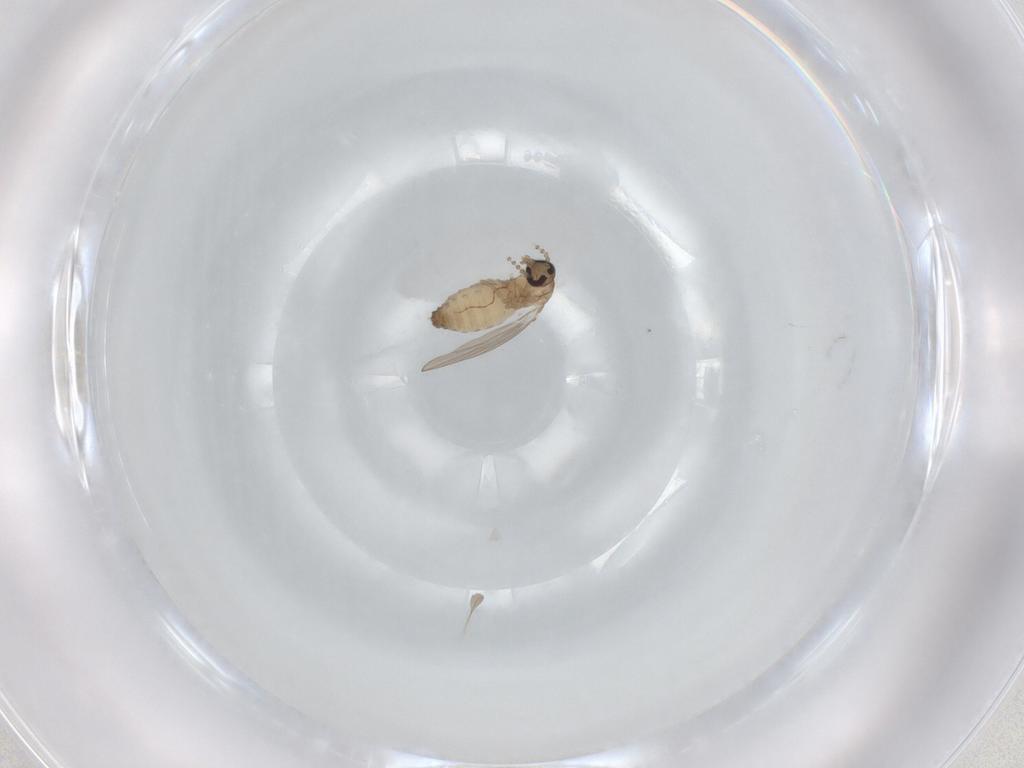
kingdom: Animalia
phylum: Arthropoda
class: Insecta
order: Diptera
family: Psychodidae
